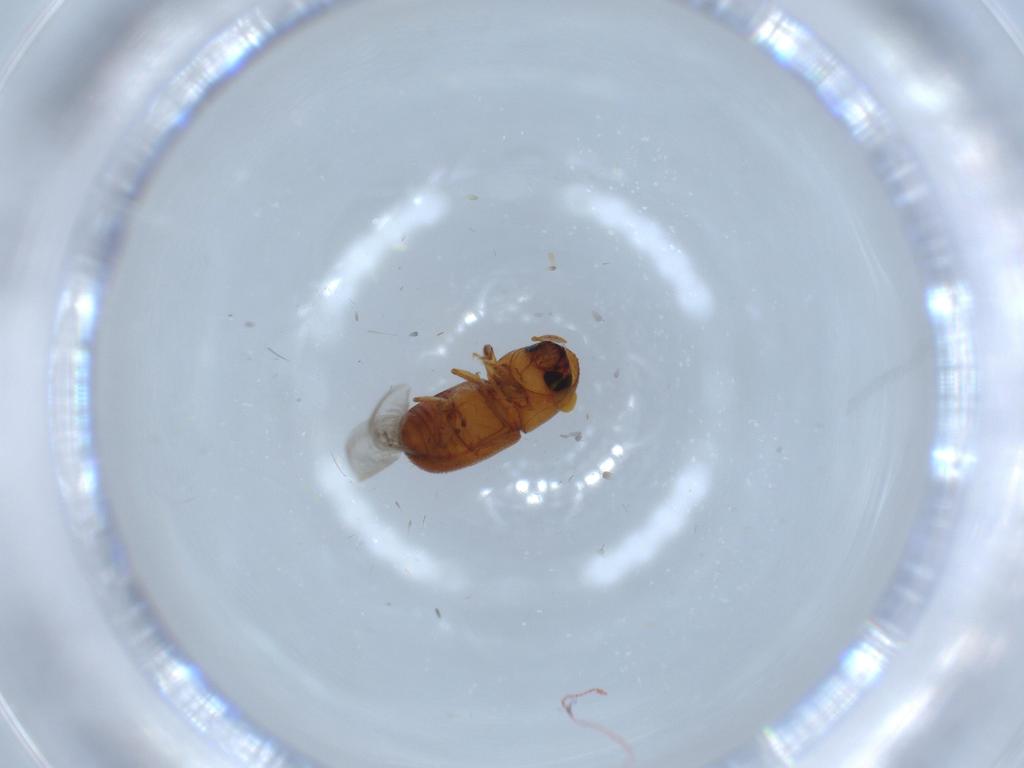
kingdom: Animalia
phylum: Arthropoda
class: Insecta
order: Coleoptera
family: Curculionidae
